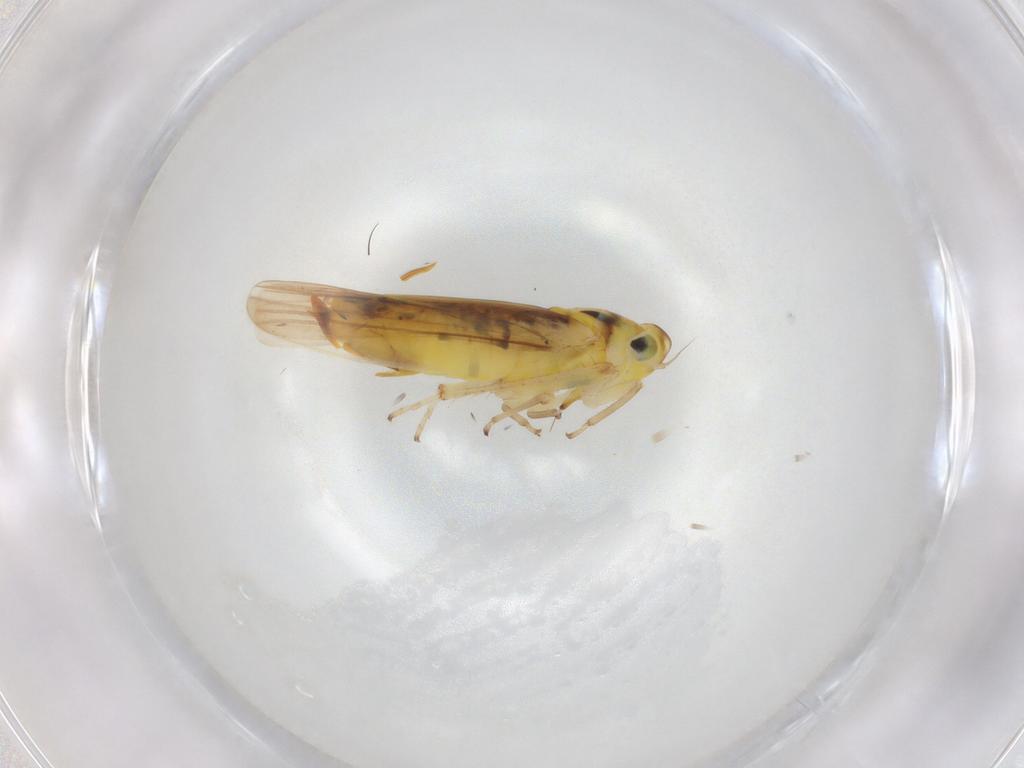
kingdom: Animalia
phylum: Arthropoda
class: Insecta
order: Hemiptera
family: Cicadellidae
